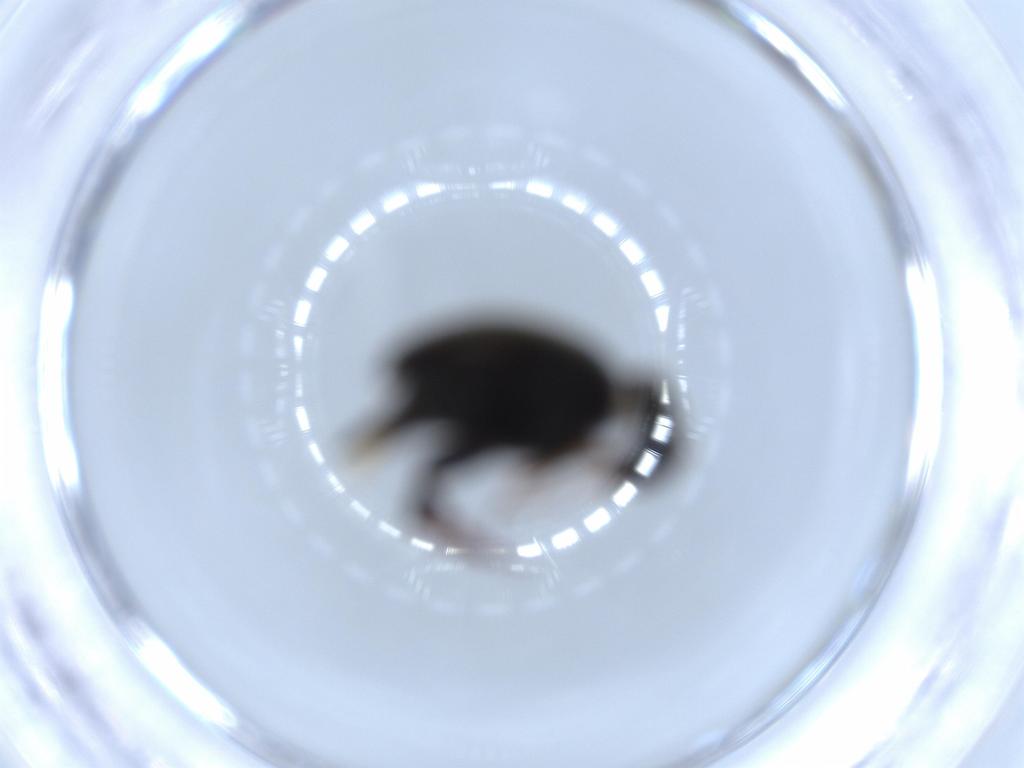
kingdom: Animalia
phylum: Arthropoda
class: Insecta
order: Coleoptera
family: Mordellidae
